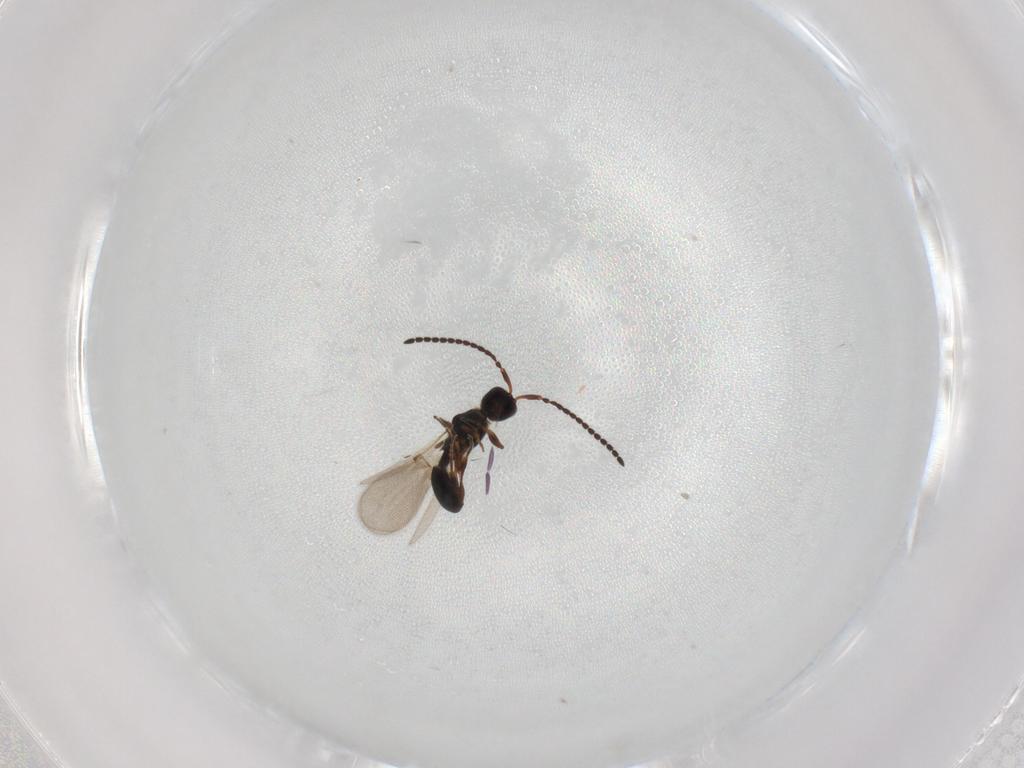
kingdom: Animalia
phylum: Arthropoda
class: Insecta
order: Hymenoptera
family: Diapriidae
